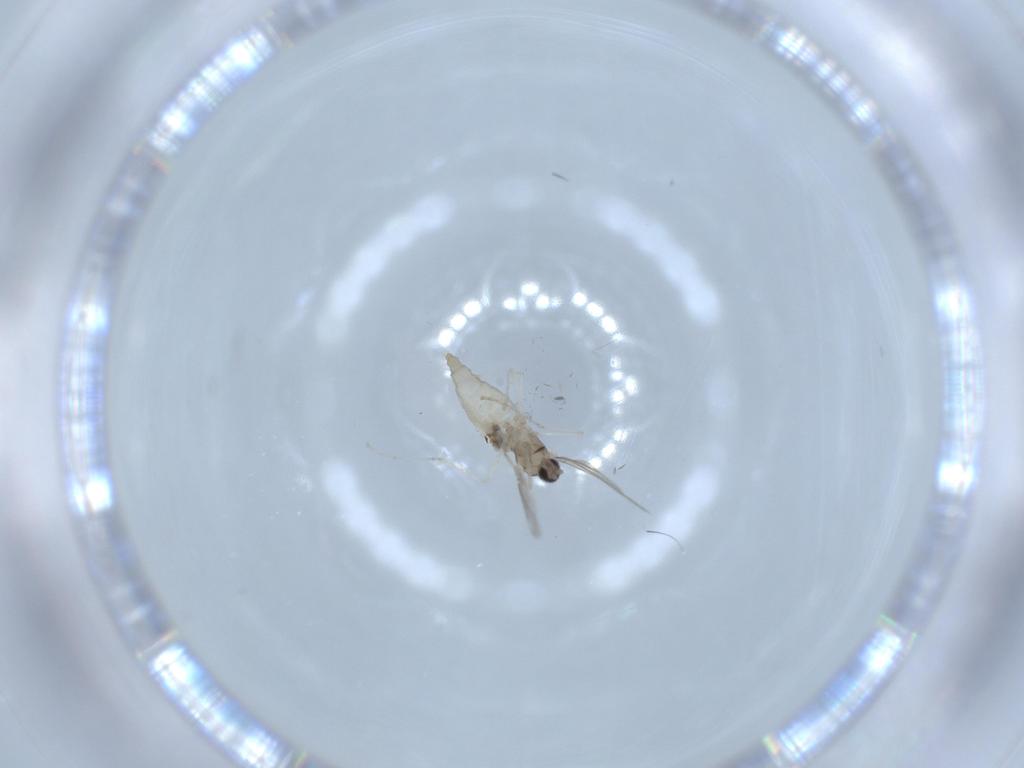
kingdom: Animalia
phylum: Arthropoda
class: Insecta
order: Diptera
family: Cecidomyiidae
